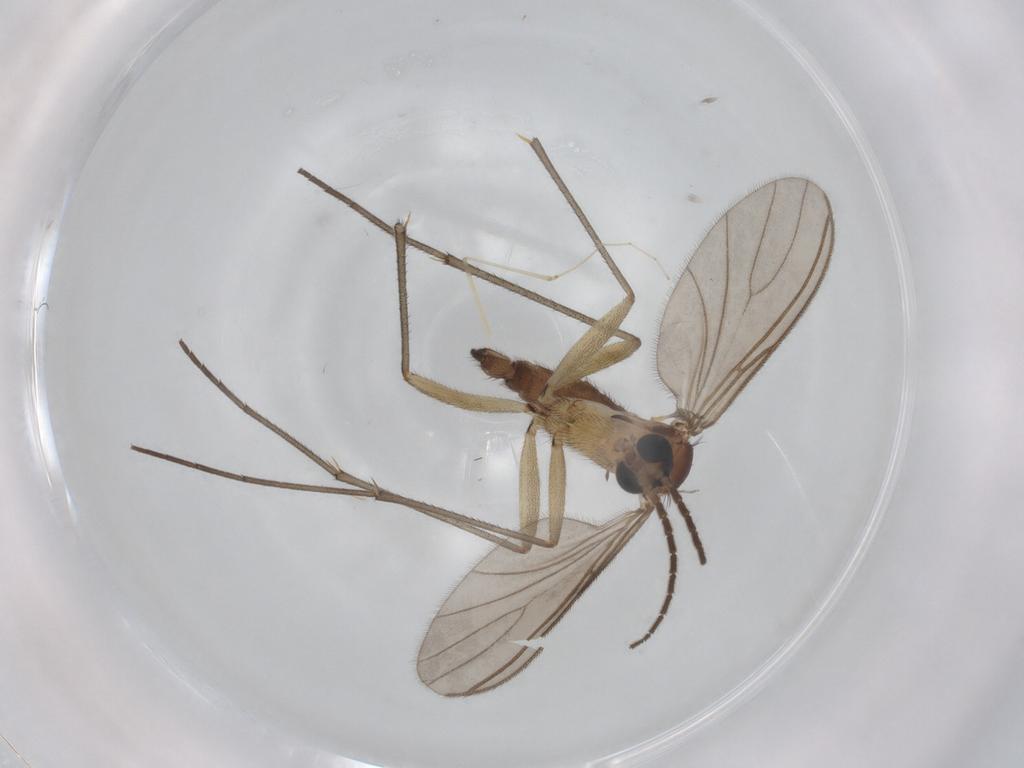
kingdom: Animalia
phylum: Arthropoda
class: Insecta
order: Diptera
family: Sciaridae
